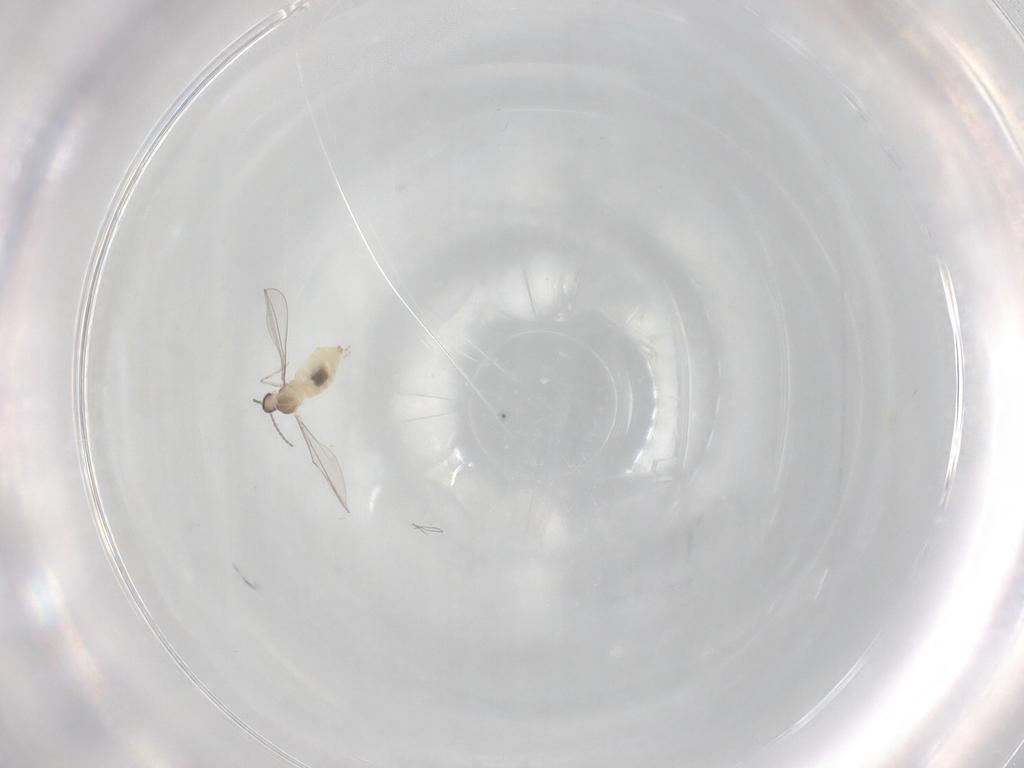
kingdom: Animalia
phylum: Arthropoda
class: Insecta
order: Diptera
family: Cecidomyiidae
